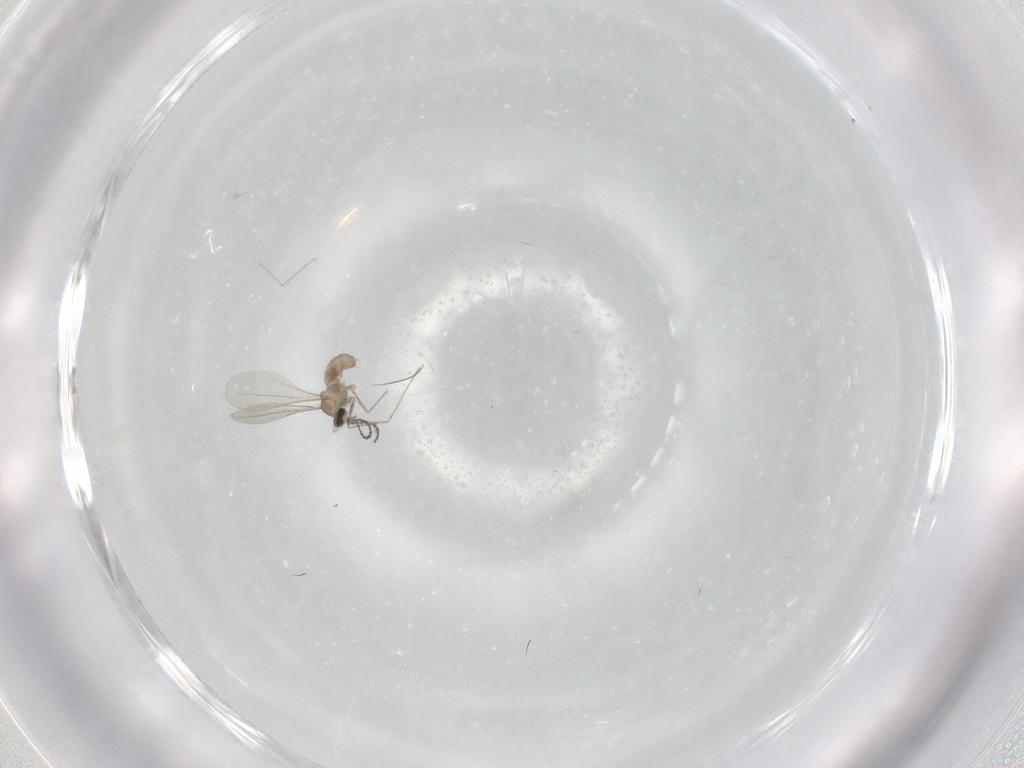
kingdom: Animalia
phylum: Arthropoda
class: Insecta
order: Diptera
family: Cecidomyiidae
